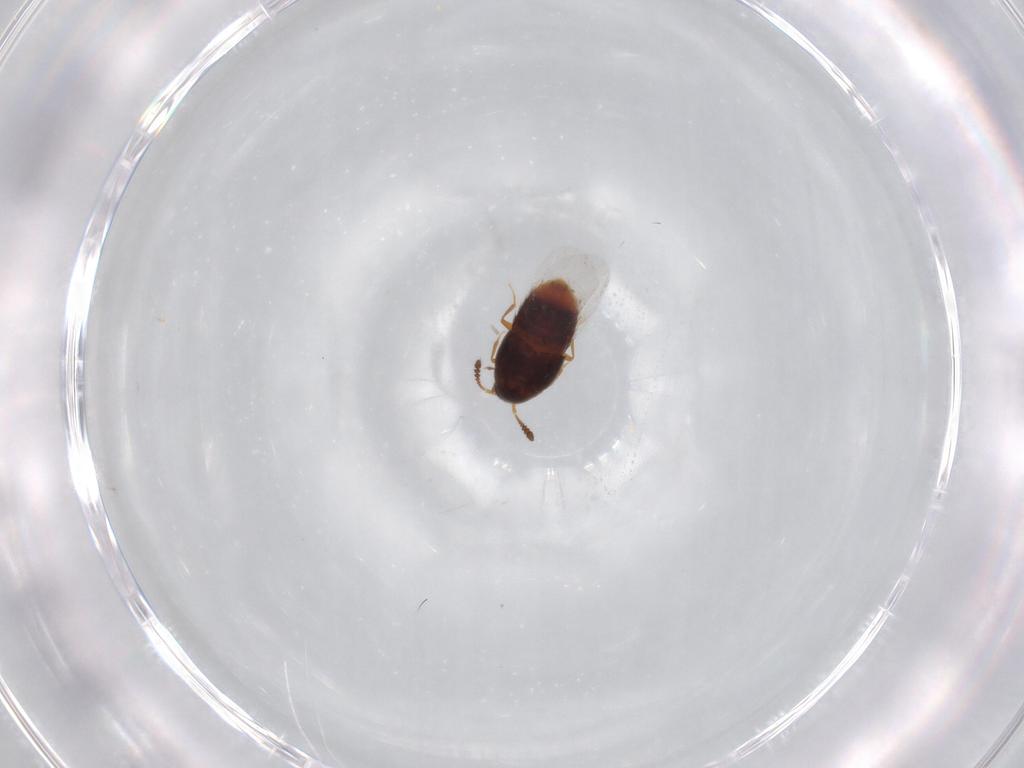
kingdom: Animalia
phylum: Arthropoda
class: Insecta
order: Coleoptera
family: Staphylinidae
